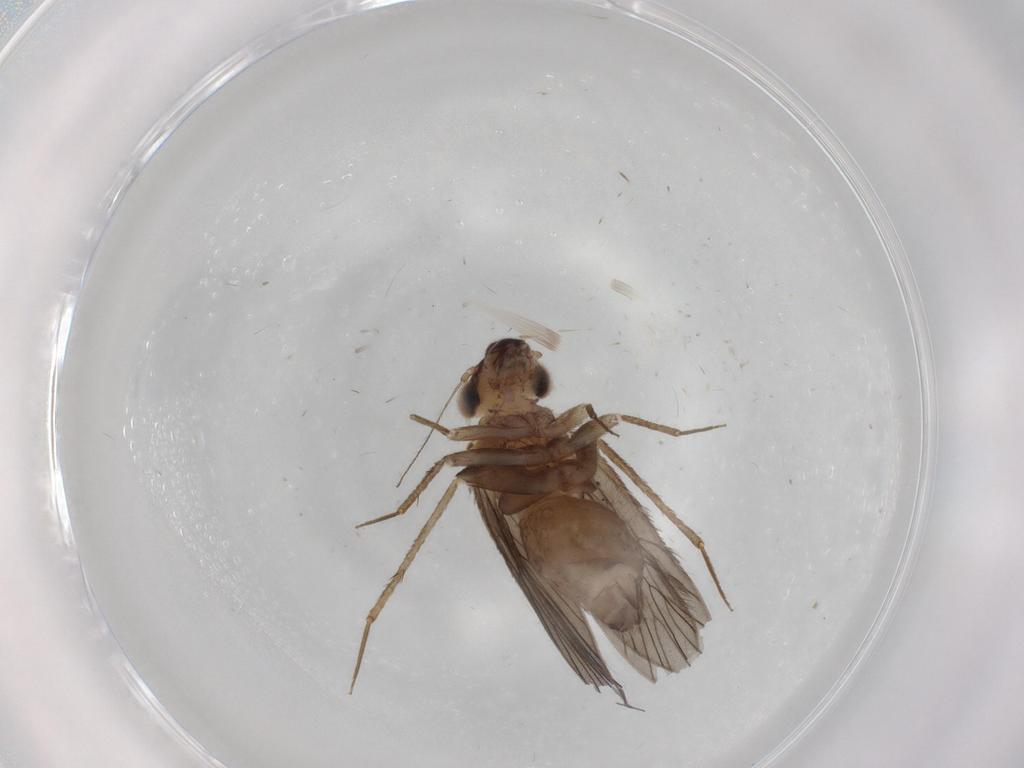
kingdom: Animalia
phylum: Arthropoda
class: Insecta
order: Psocodea
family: Lepidopsocidae
